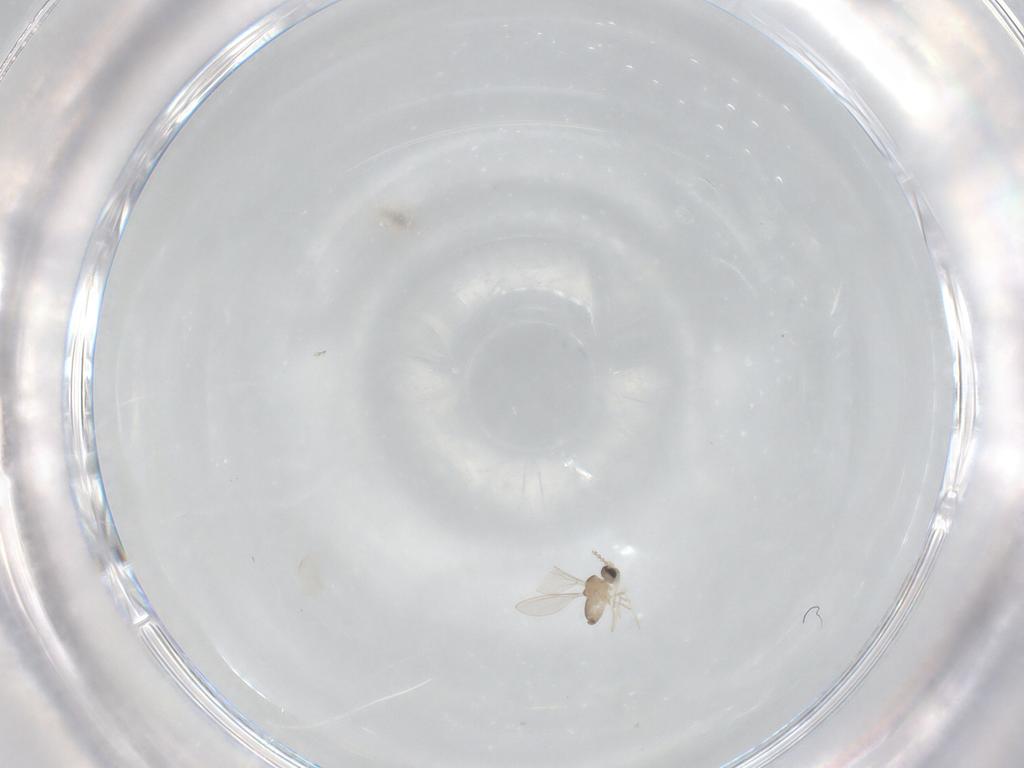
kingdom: Animalia
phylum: Arthropoda
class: Insecta
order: Diptera
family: Cecidomyiidae
